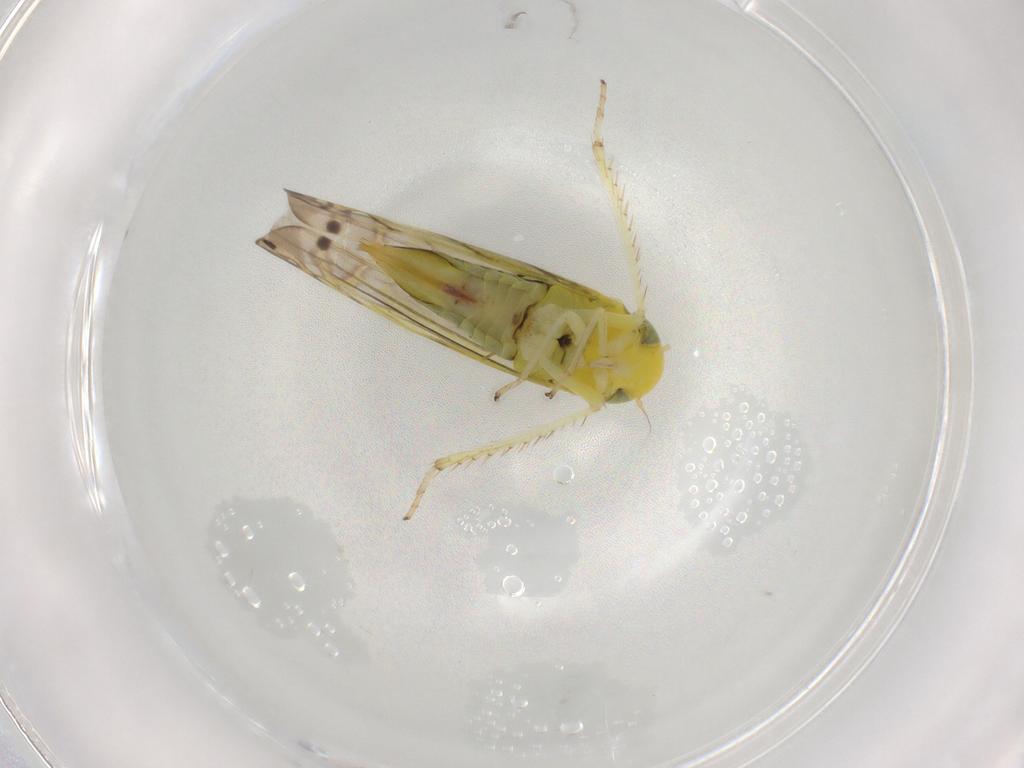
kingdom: Animalia
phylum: Arthropoda
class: Insecta
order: Hemiptera
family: Cicadellidae
